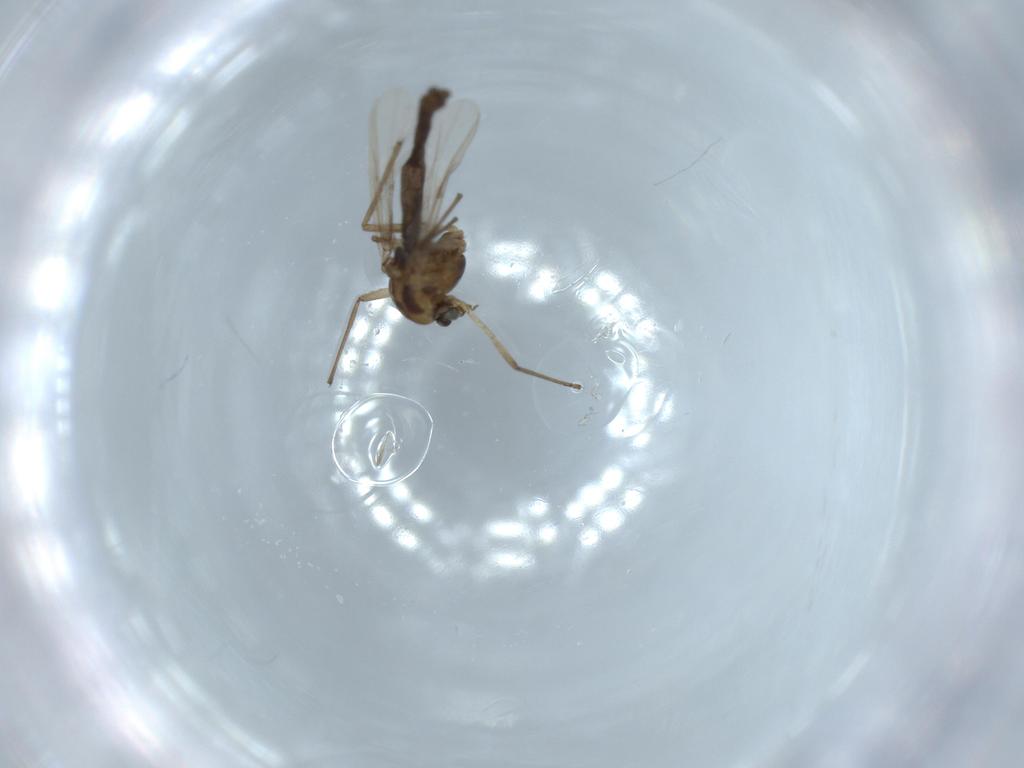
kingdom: Animalia
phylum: Arthropoda
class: Insecta
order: Diptera
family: Chironomidae
